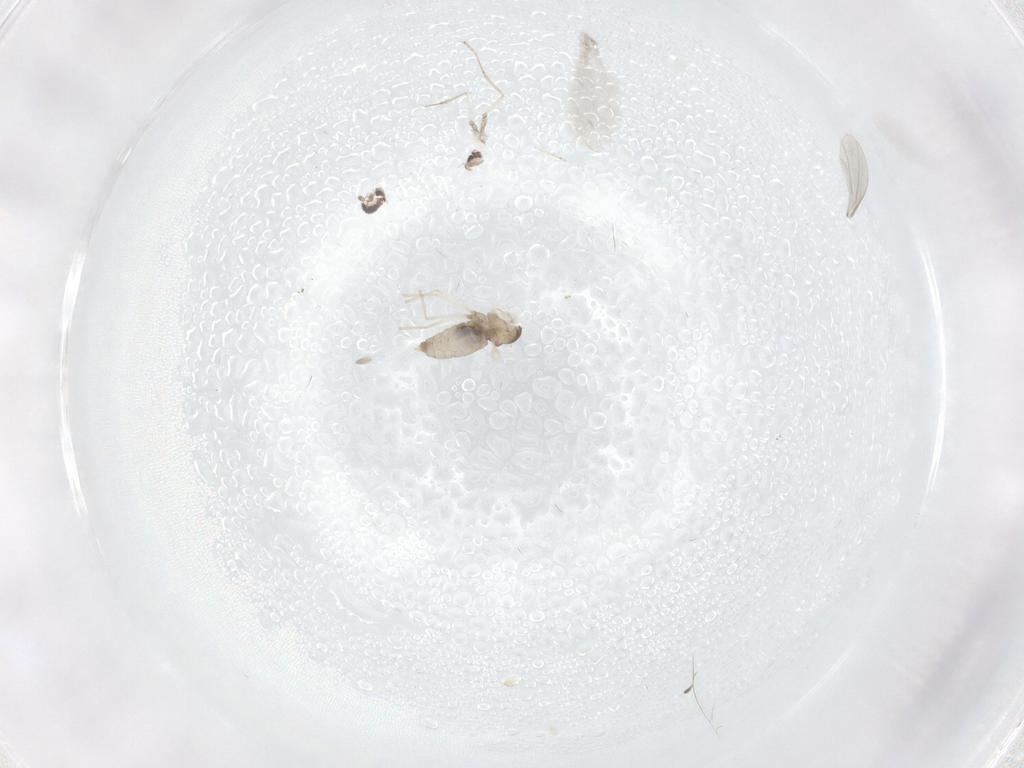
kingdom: Animalia
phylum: Arthropoda
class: Insecta
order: Diptera
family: Cecidomyiidae
